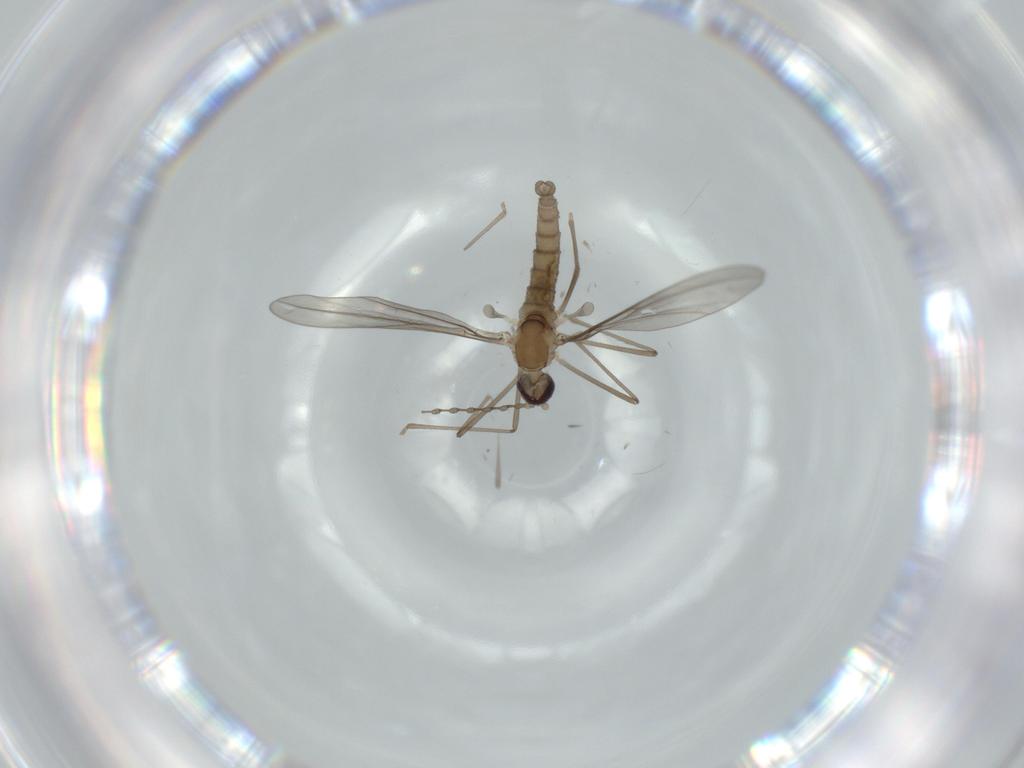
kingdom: Animalia
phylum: Arthropoda
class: Insecta
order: Diptera
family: Cecidomyiidae
